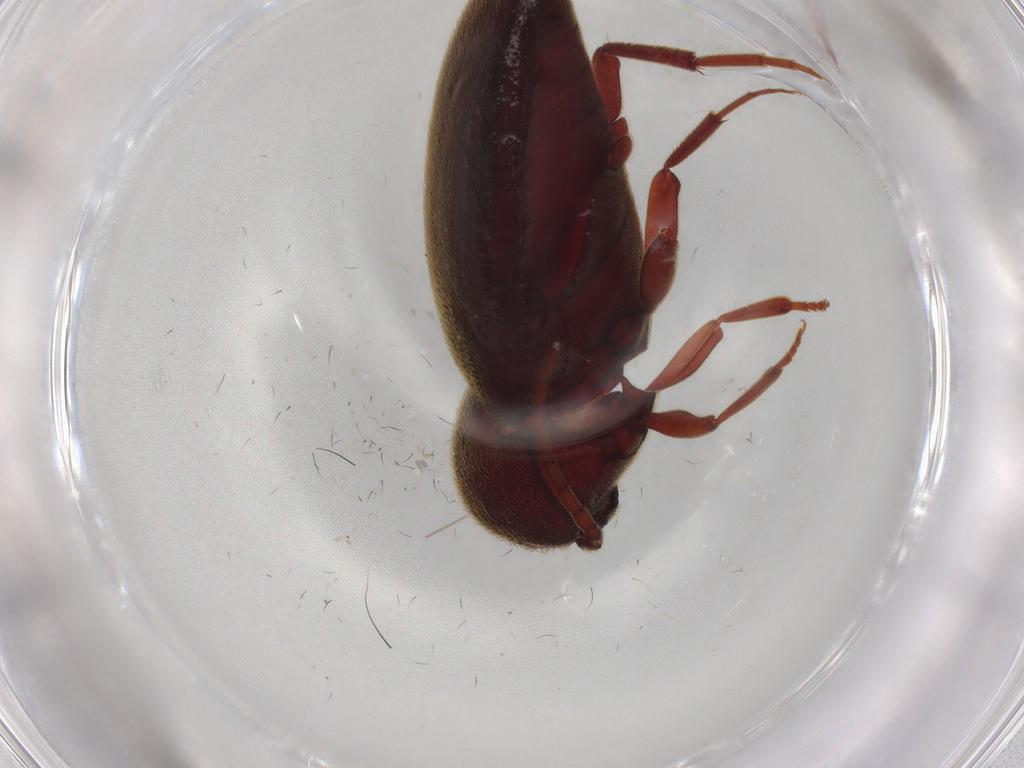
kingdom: Animalia
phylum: Arthropoda
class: Insecta
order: Coleoptera
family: Eucnemidae
